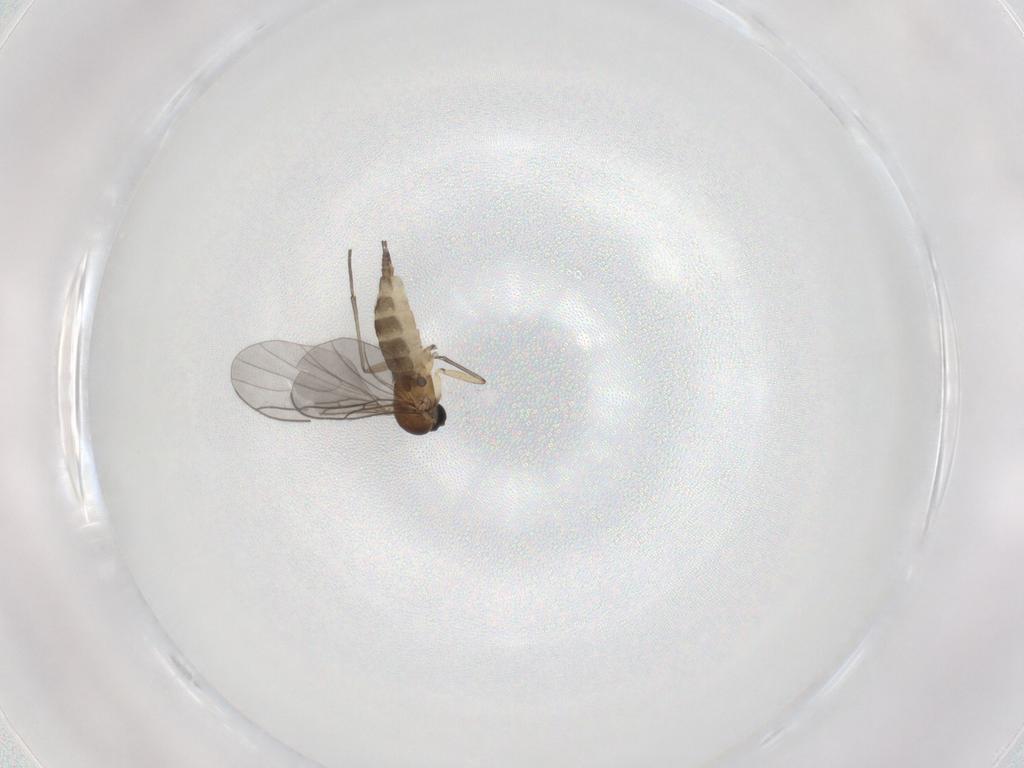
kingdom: Animalia
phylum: Arthropoda
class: Insecta
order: Diptera
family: Sciaridae
